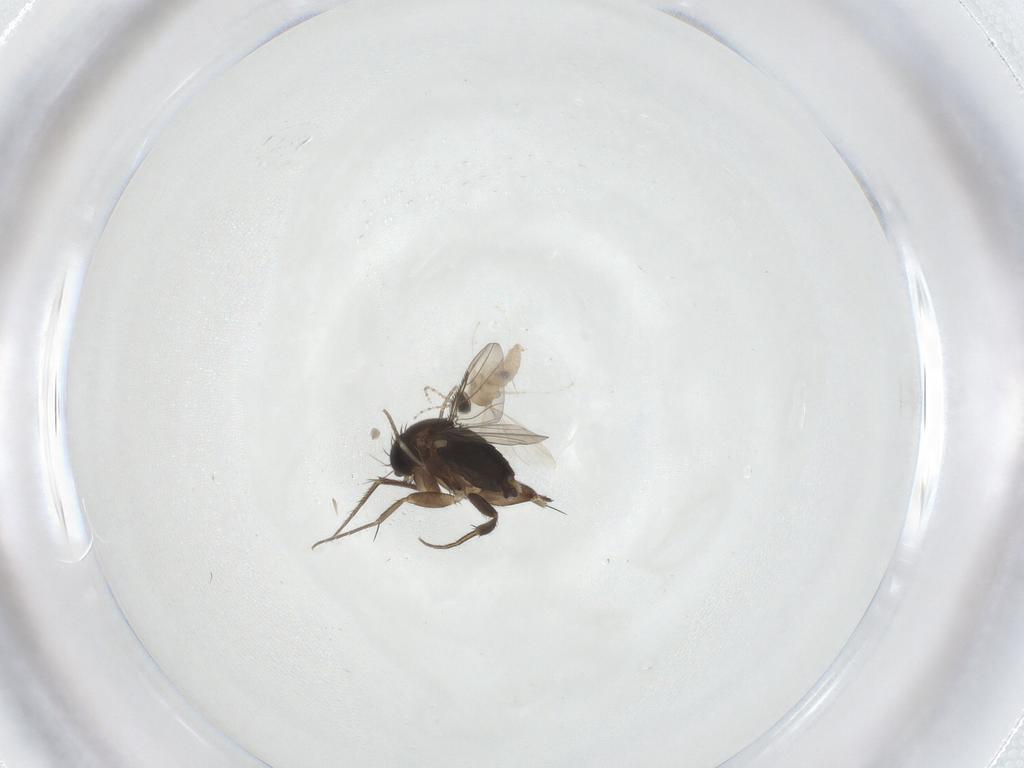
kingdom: Animalia
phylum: Arthropoda
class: Insecta
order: Diptera
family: Cecidomyiidae
